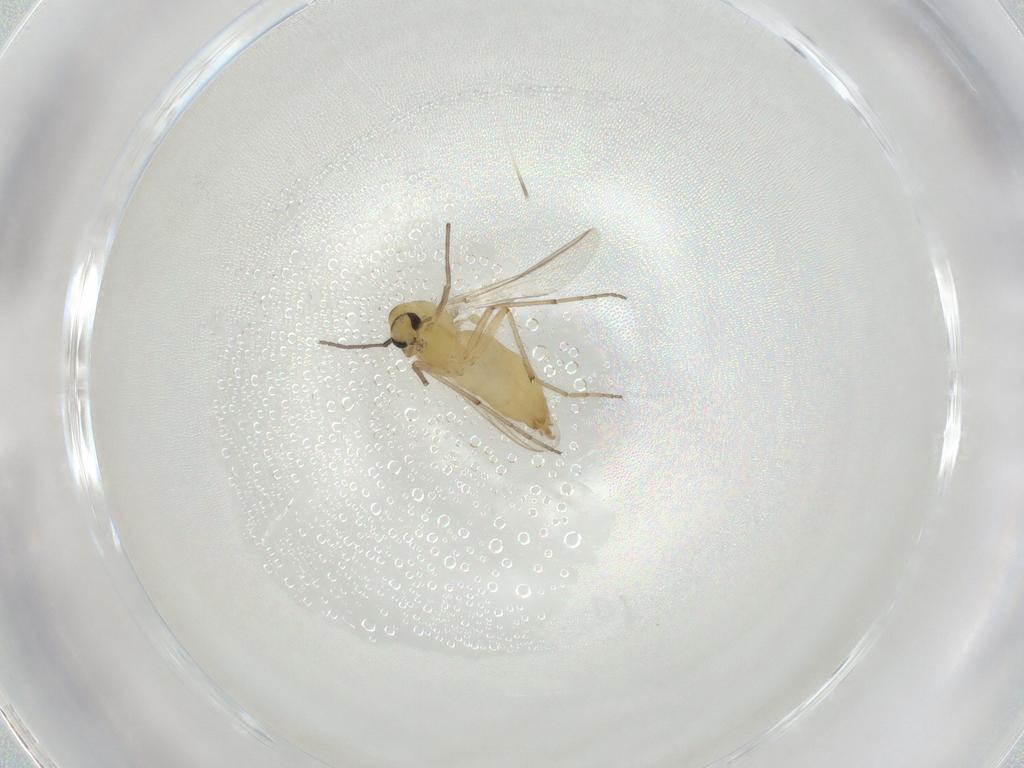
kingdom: Animalia
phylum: Arthropoda
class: Insecta
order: Diptera
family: Chironomidae
